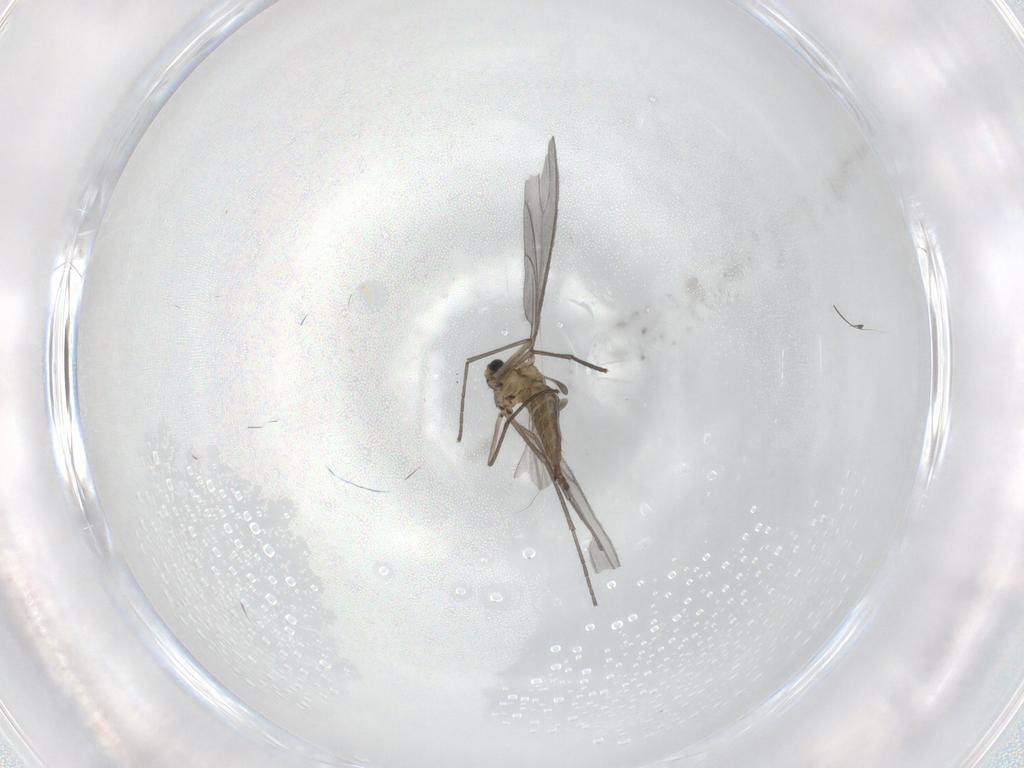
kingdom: Animalia
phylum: Arthropoda
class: Insecta
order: Diptera
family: Sciaridae
